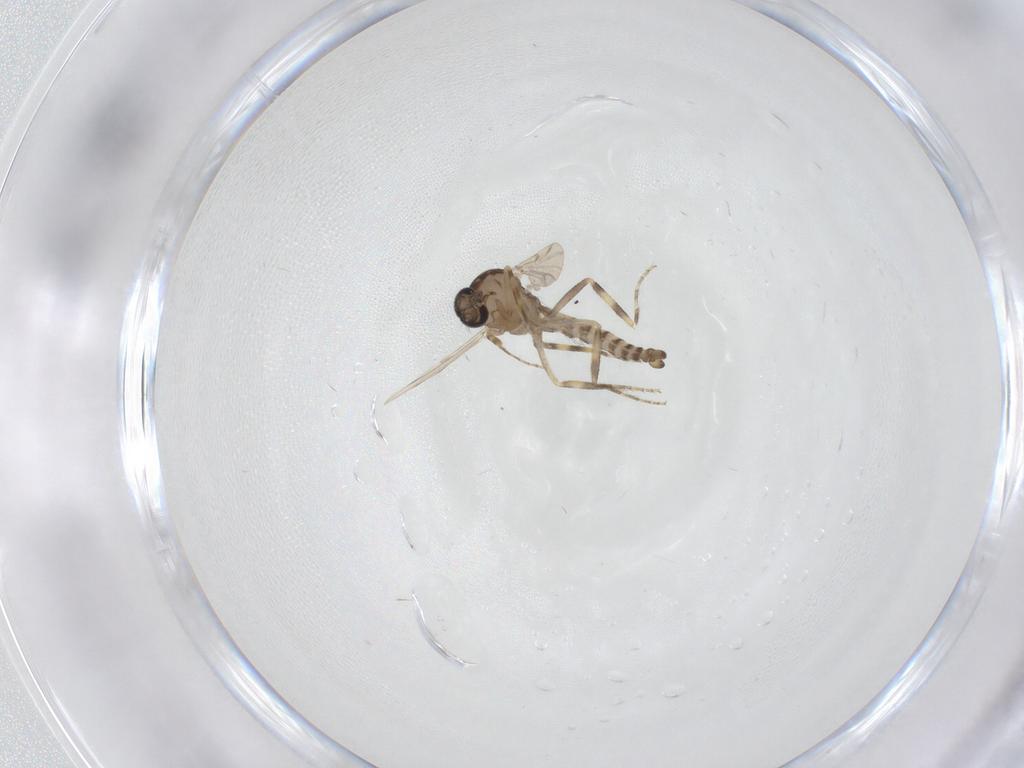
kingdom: Animalia
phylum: Arthropoda
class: Insecta
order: Diptera
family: Ceratopogonidae
